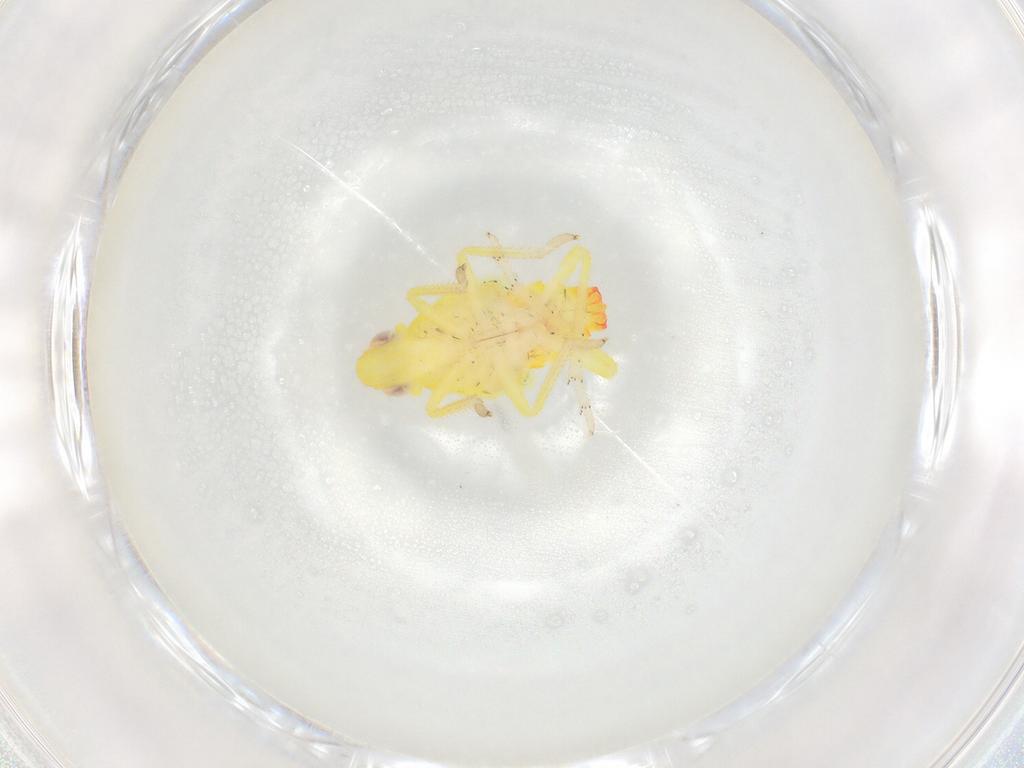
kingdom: Animalia
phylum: Arthropoda
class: Insecta
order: Hemiptera
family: Tropiduchidae
